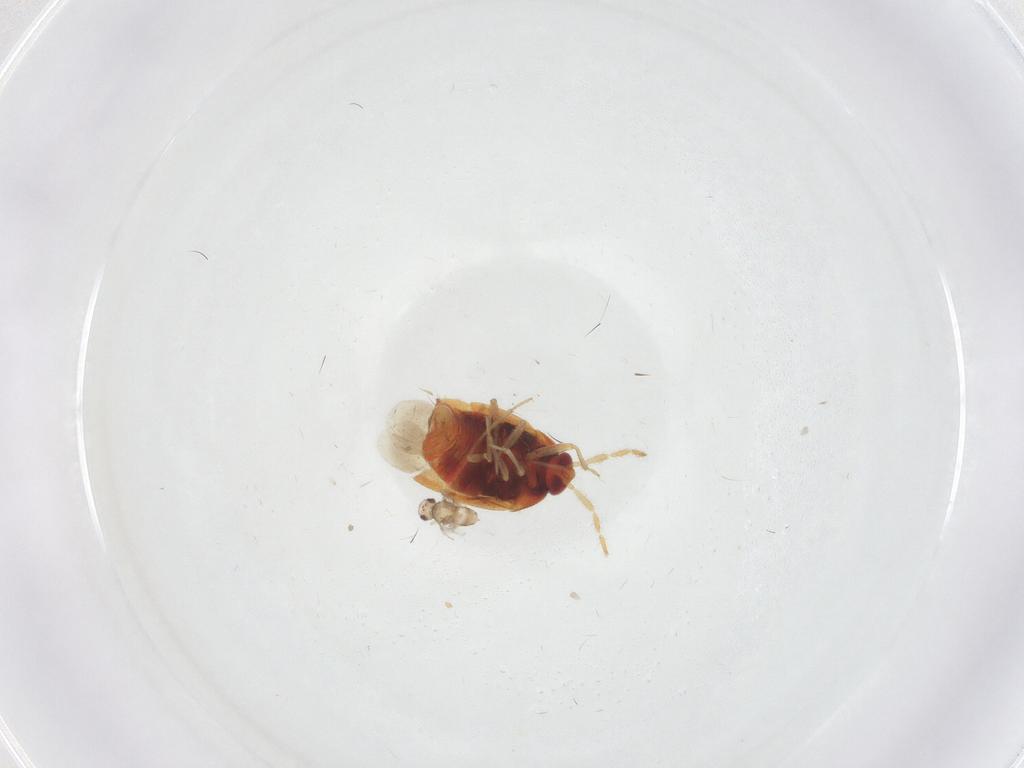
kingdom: Animalia
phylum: Arthropoda
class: Insecta
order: Hemiptera
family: Anthocoridae
